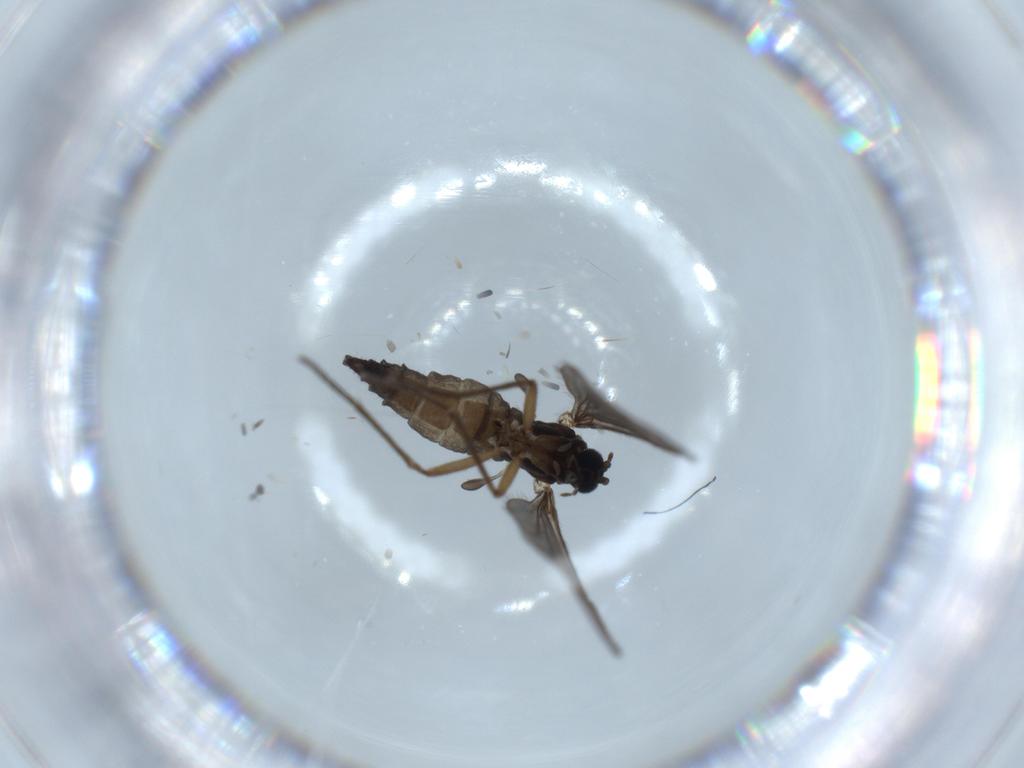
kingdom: Animalia
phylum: Arthropoda
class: Insecta
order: Diptera
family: Sciaridae
